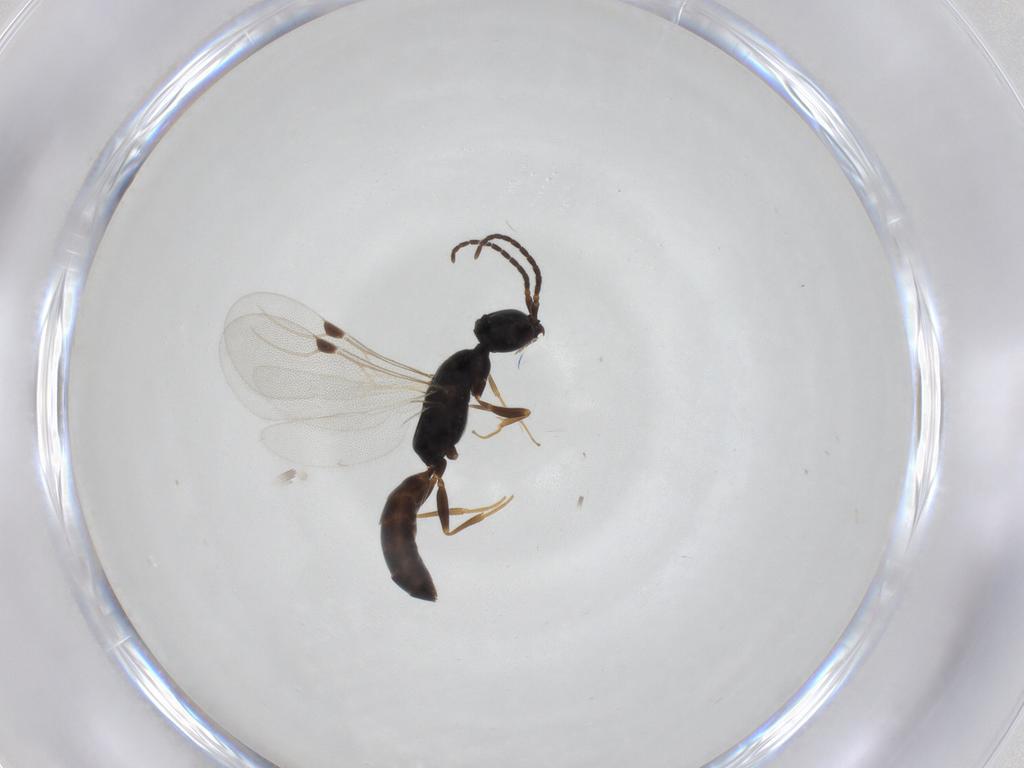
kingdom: Animalia
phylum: Arthropoda
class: Insecta
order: Hymenoptera
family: Bethylidae
